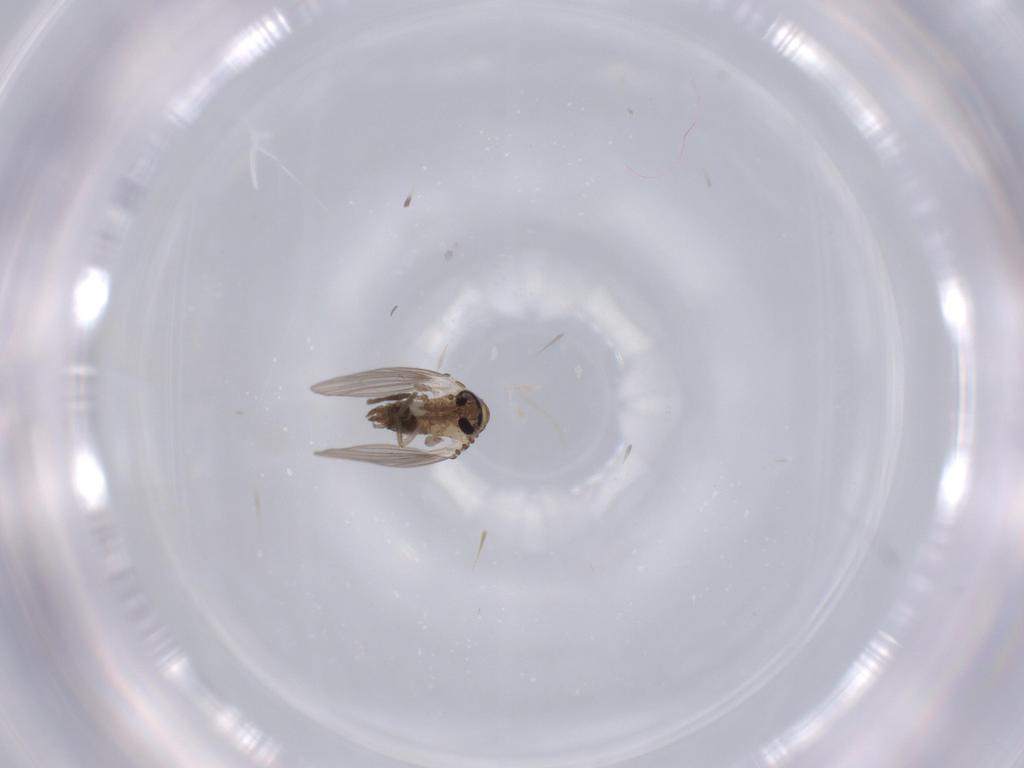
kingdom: Animalia
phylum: Arthropoda
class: Insecta
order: Diptera
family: Psychodidae
